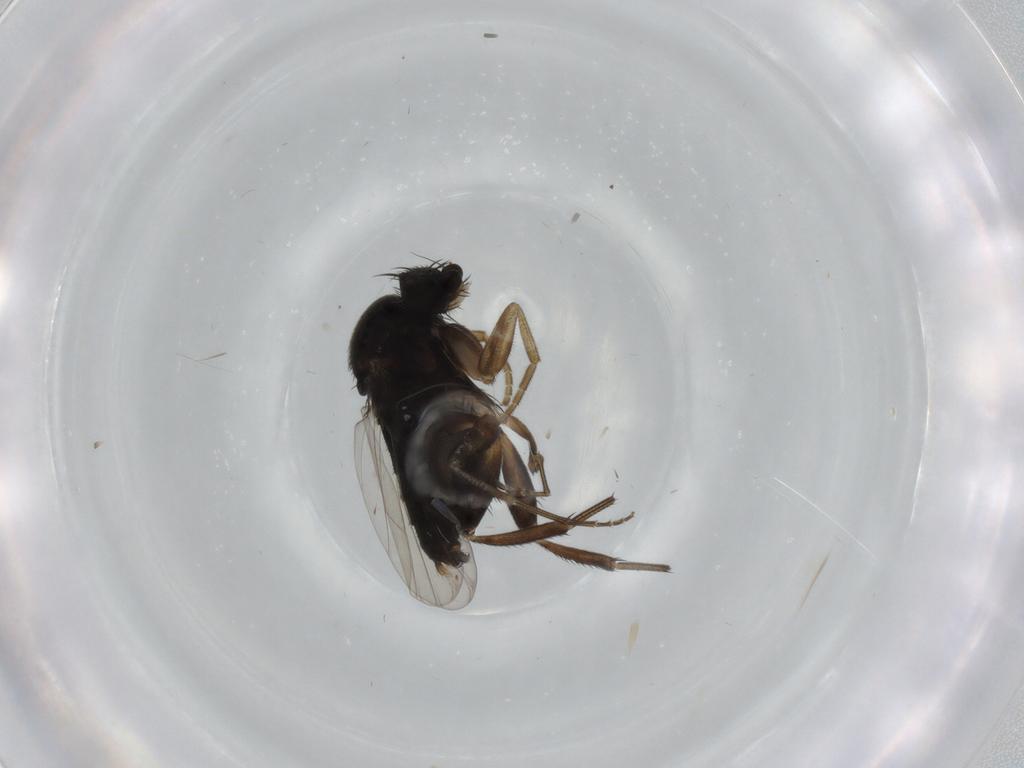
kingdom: Animalia
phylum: Arthropoda
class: Insecta
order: Diptera
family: Phoridae
